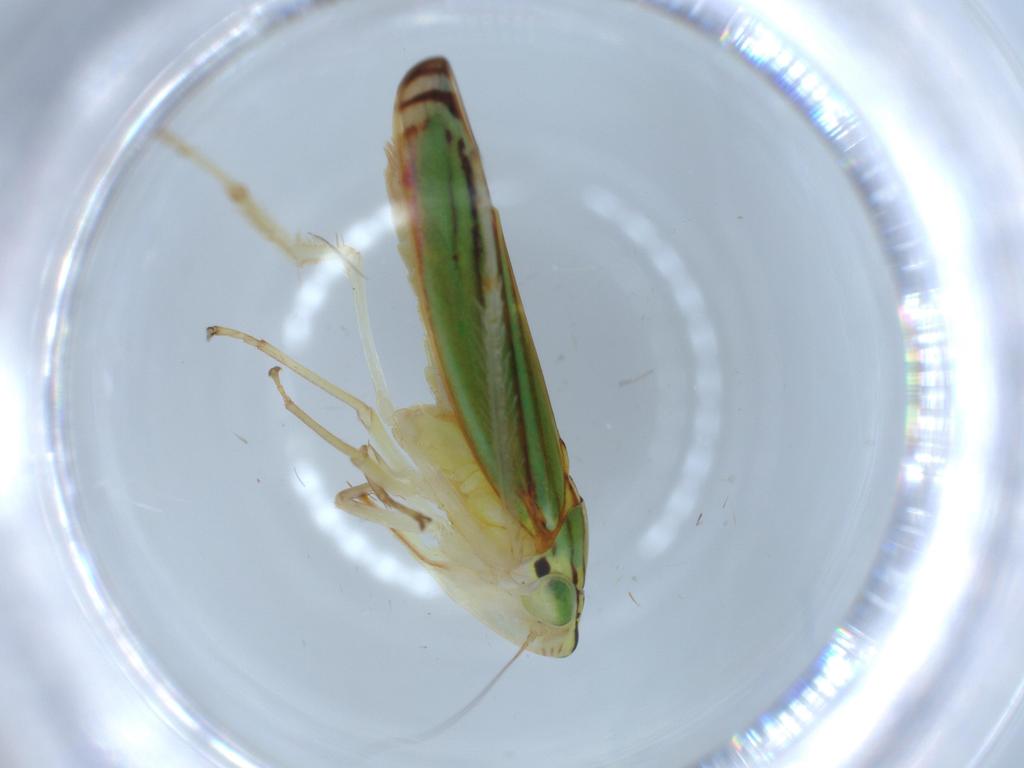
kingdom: Animalia
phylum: Arthropoda
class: Insecta
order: Hemiptera
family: Cicadellidae
